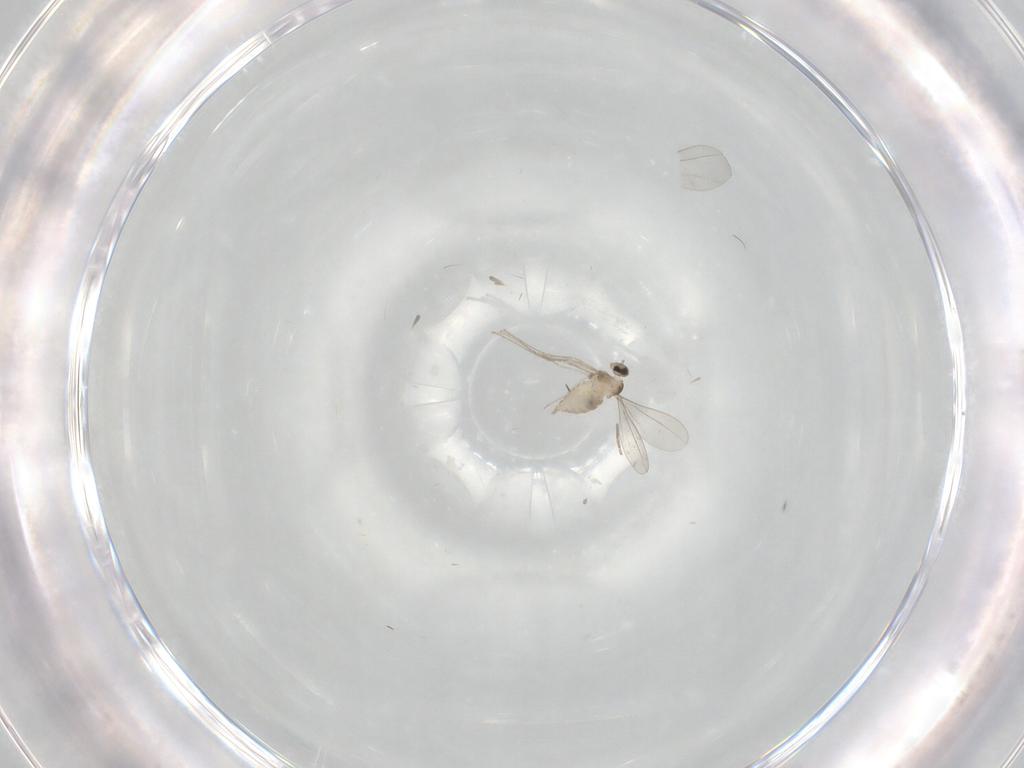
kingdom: Animalia
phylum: Arthropoda
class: Insecta
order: Diptera
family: Cecidomyiidae
